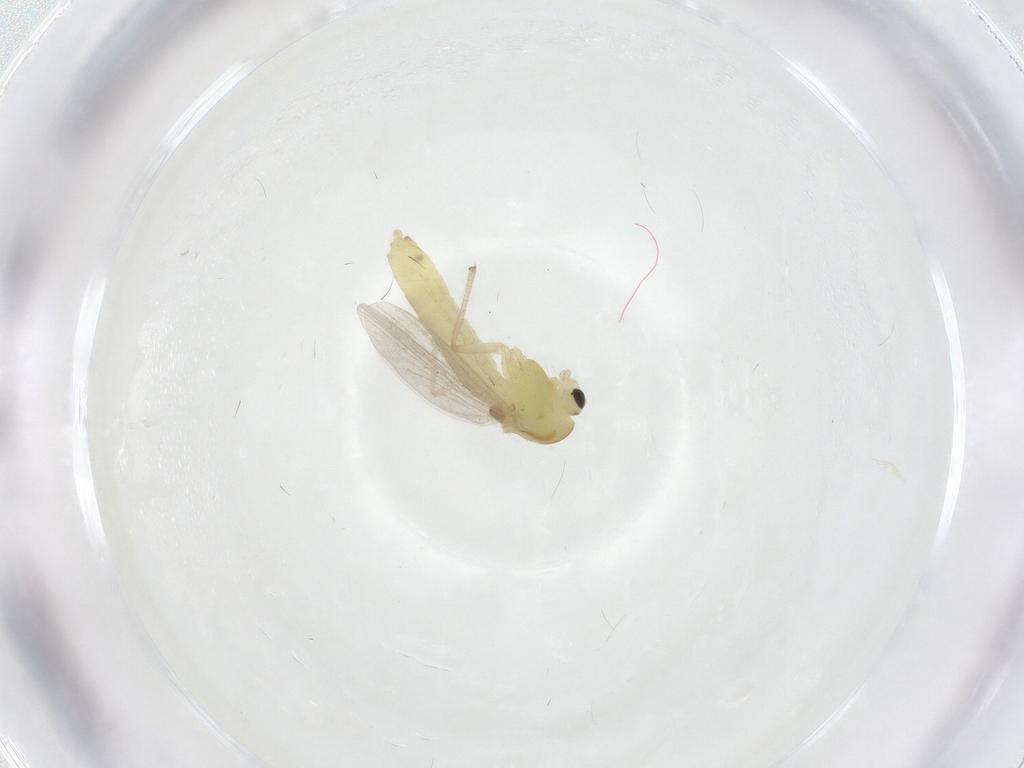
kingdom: Animalia
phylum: Arthropoda
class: Insecta
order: Diptera
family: Chironomidae
